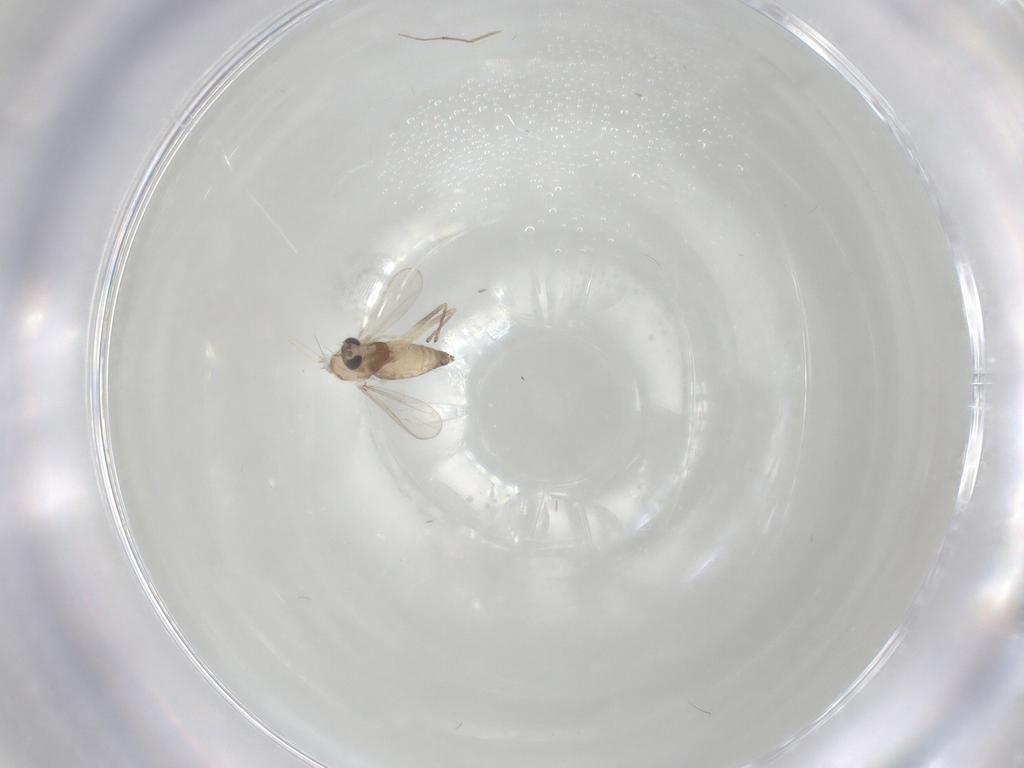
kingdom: Animalia
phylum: Arthropoda
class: Insecta
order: Diptera
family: Chironomidae
